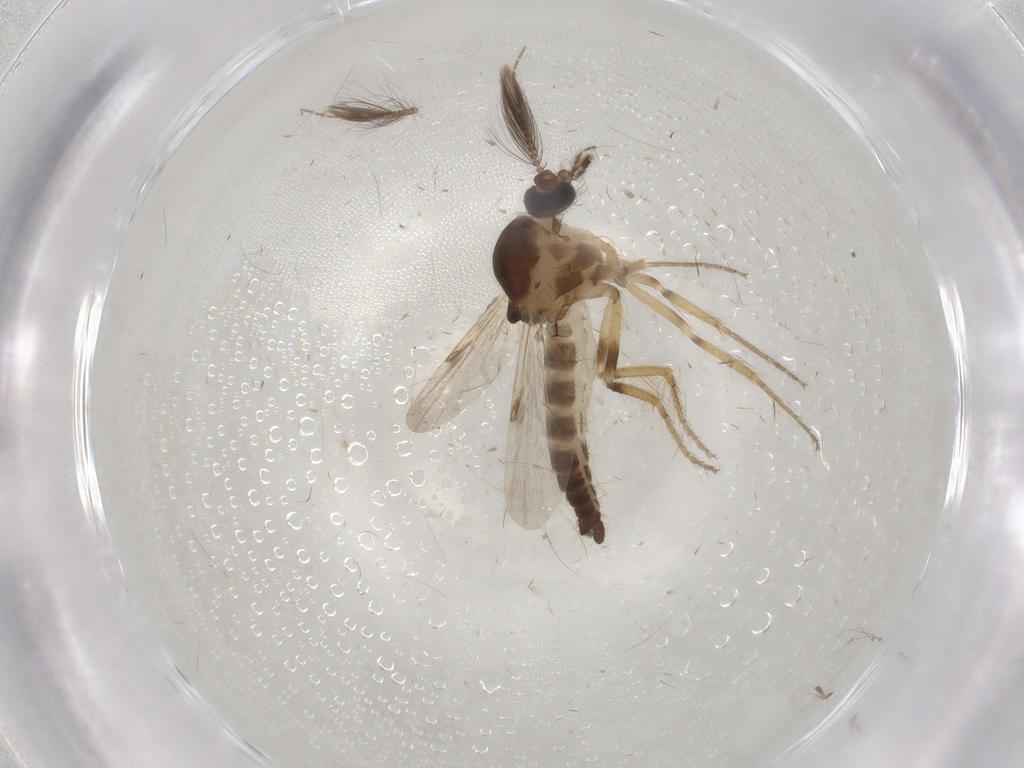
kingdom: Animalia
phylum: Arthropoda
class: Insecta
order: Diptera
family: Ceratopogonidae
